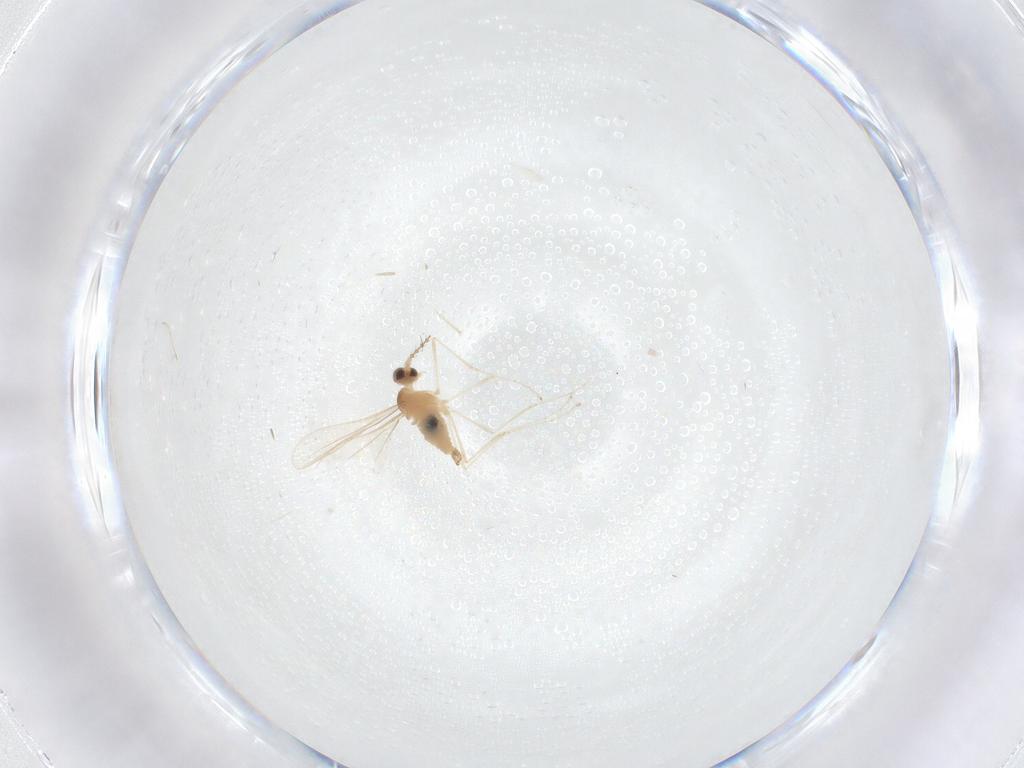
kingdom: Animalia
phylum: Arthropoda
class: Insecta
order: Diptera
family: Cecidomyiidae
